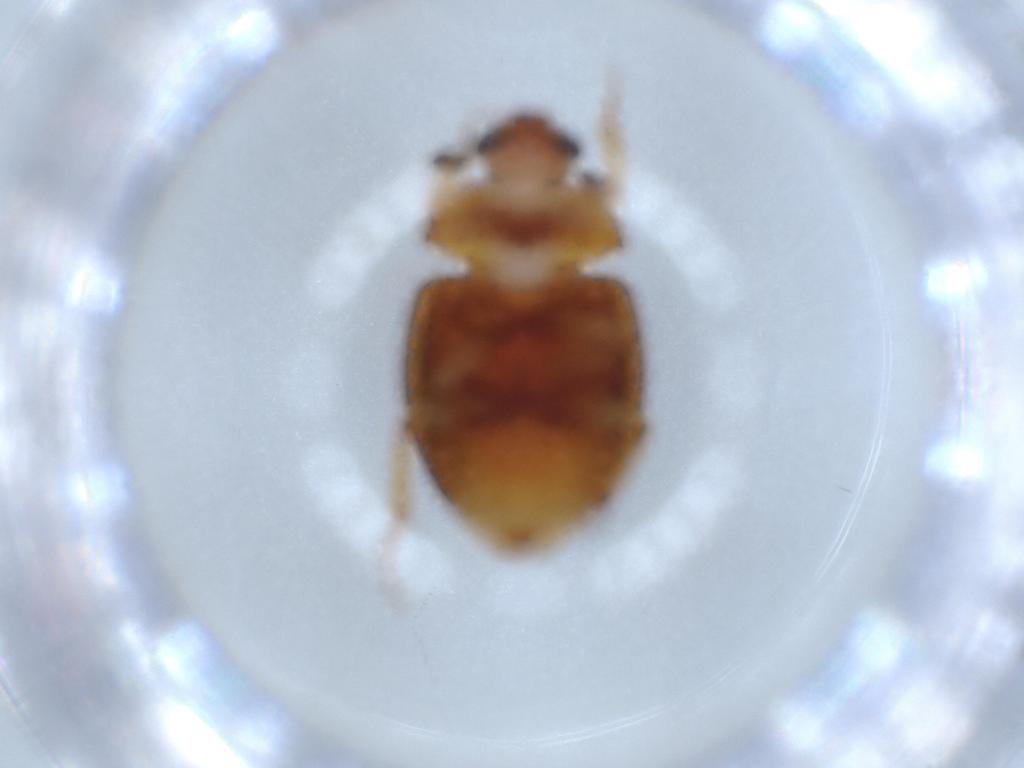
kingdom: Animalia
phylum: Arthropoda
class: Insecta
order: Coleoptera
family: Nitidulidae
